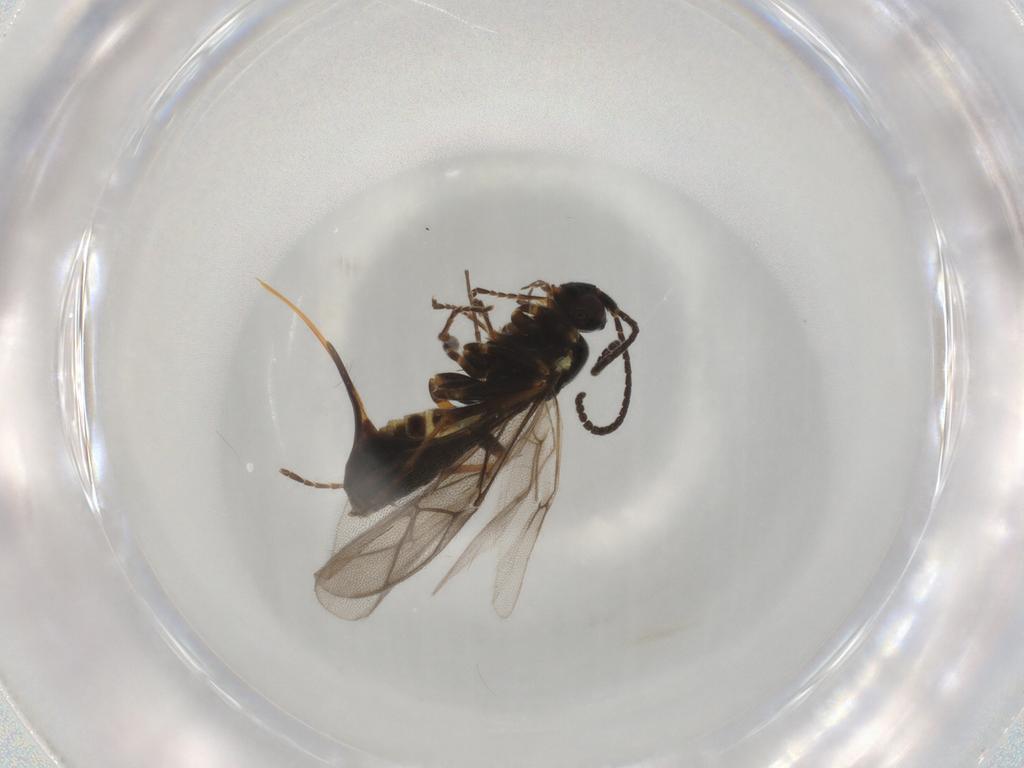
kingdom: Animalia
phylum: Arthropoda
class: Insecta
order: Hymenoptera
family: Ichneumonidae
